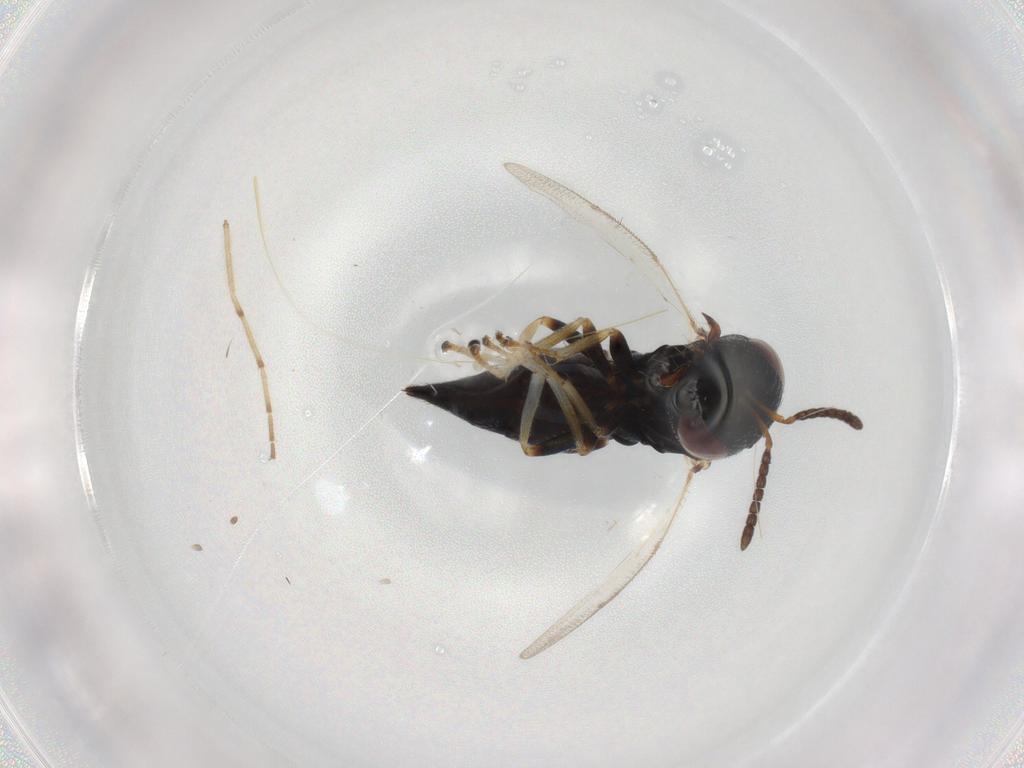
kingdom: Animalia
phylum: Arthropoda
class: Insecta
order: Hymenoptera
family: Pteromalidae
